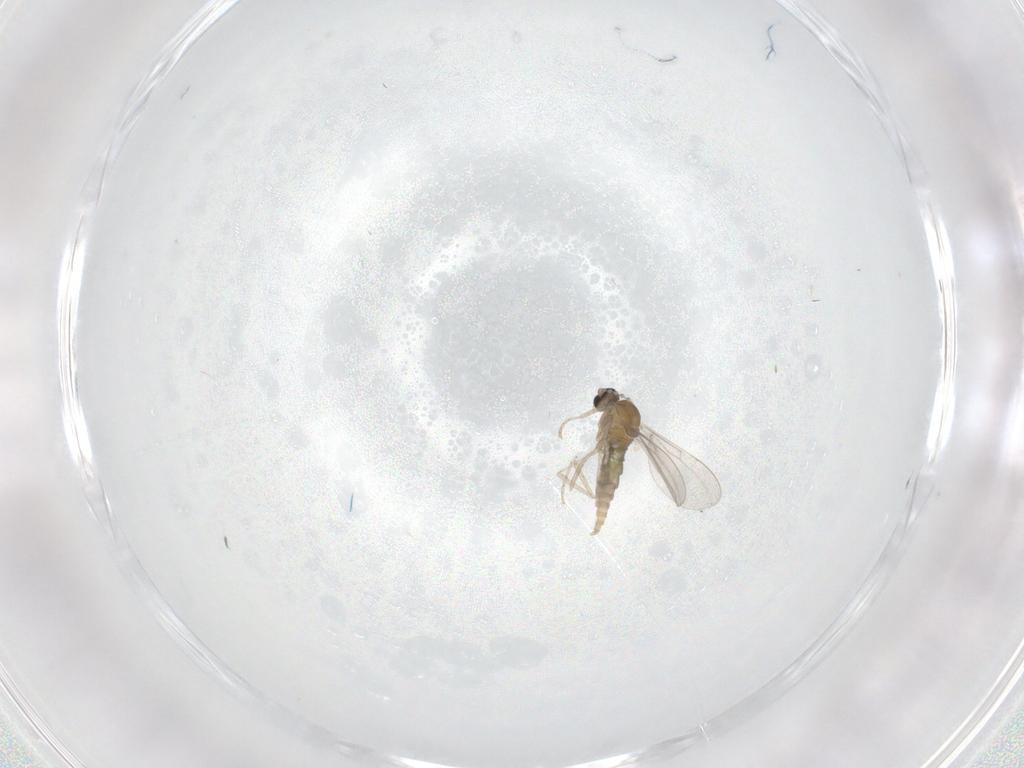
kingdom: Animalia
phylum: Arthropoda
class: Insecta
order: Diptera
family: Cecidomyiidae
